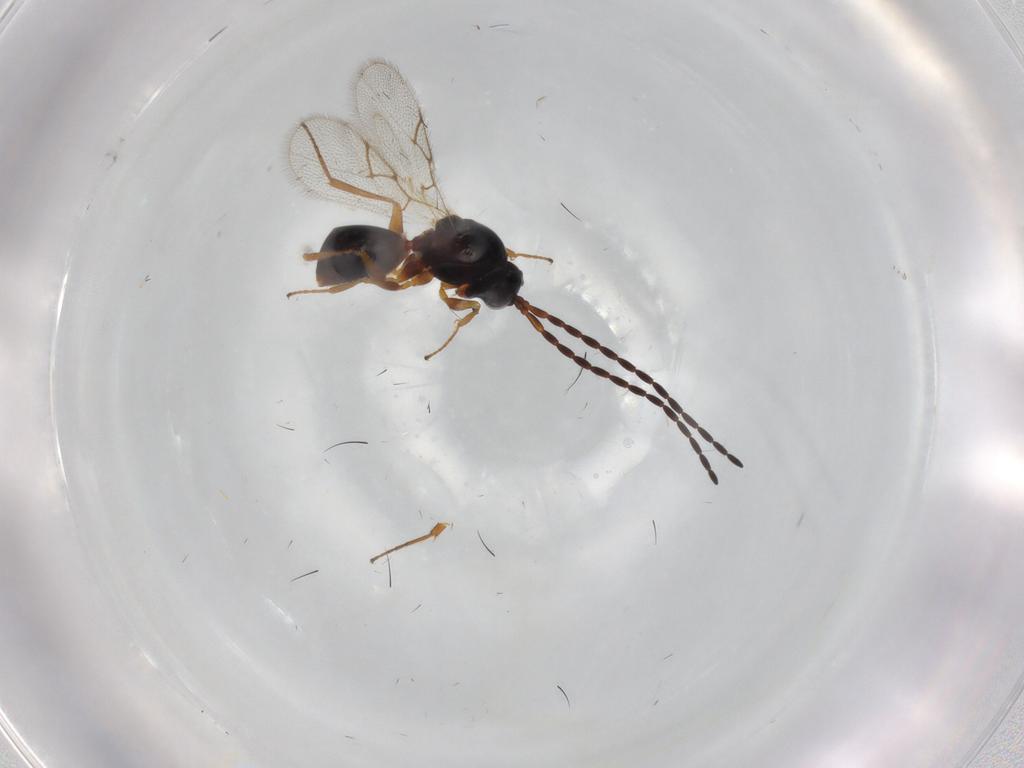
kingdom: Animalia
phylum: Arthropoda
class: Insecta
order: Hymenoptera
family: Figitidae
